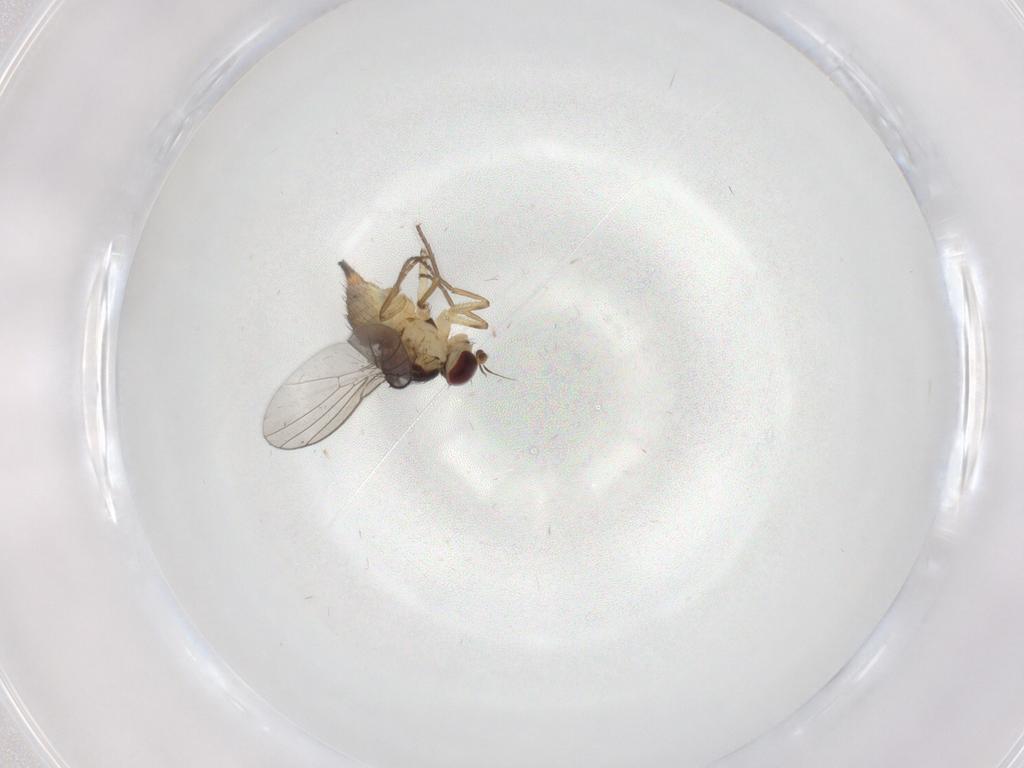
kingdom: Animalia
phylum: Arthropoda
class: Insecta
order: Diptera
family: Agromyzidae
